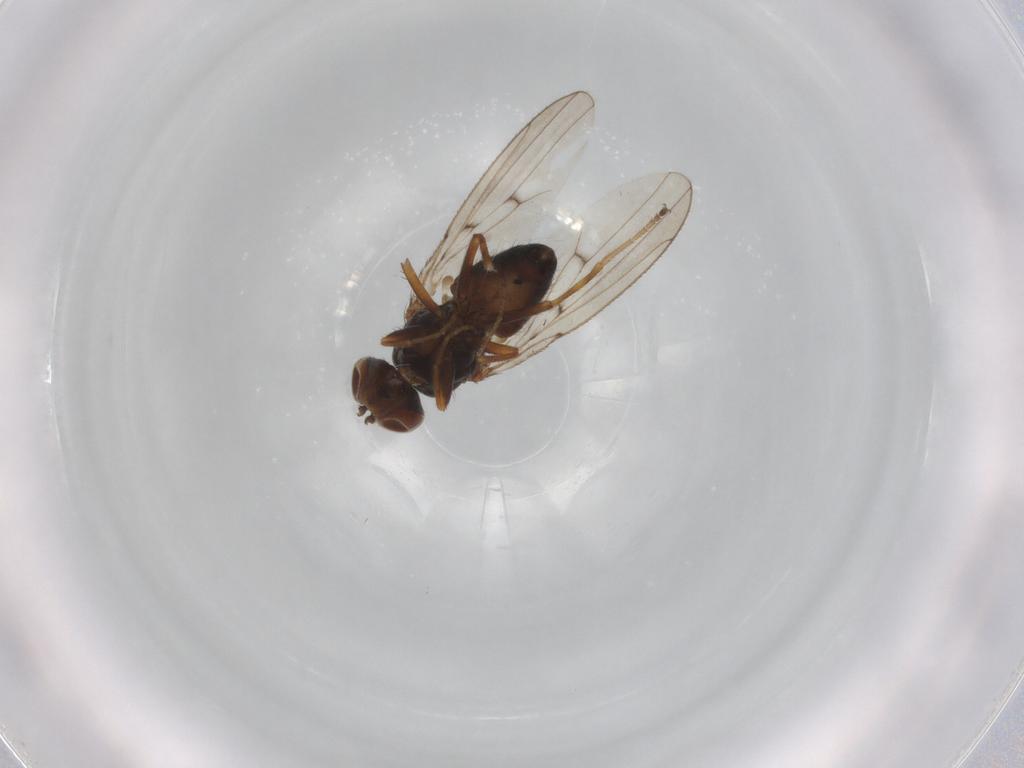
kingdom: Animalia
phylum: Arthropoda
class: Insecta
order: Diptera
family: Ephydridae
